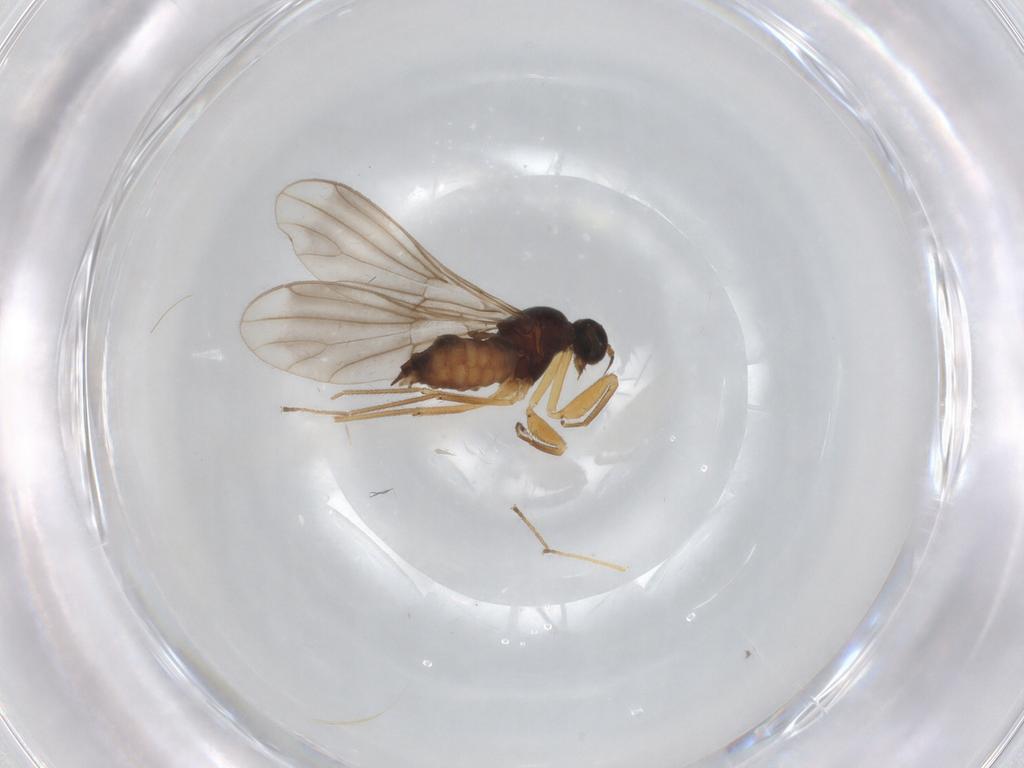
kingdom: Animalia
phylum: Arthropoda
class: Insecta
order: Diptera
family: Empididae
